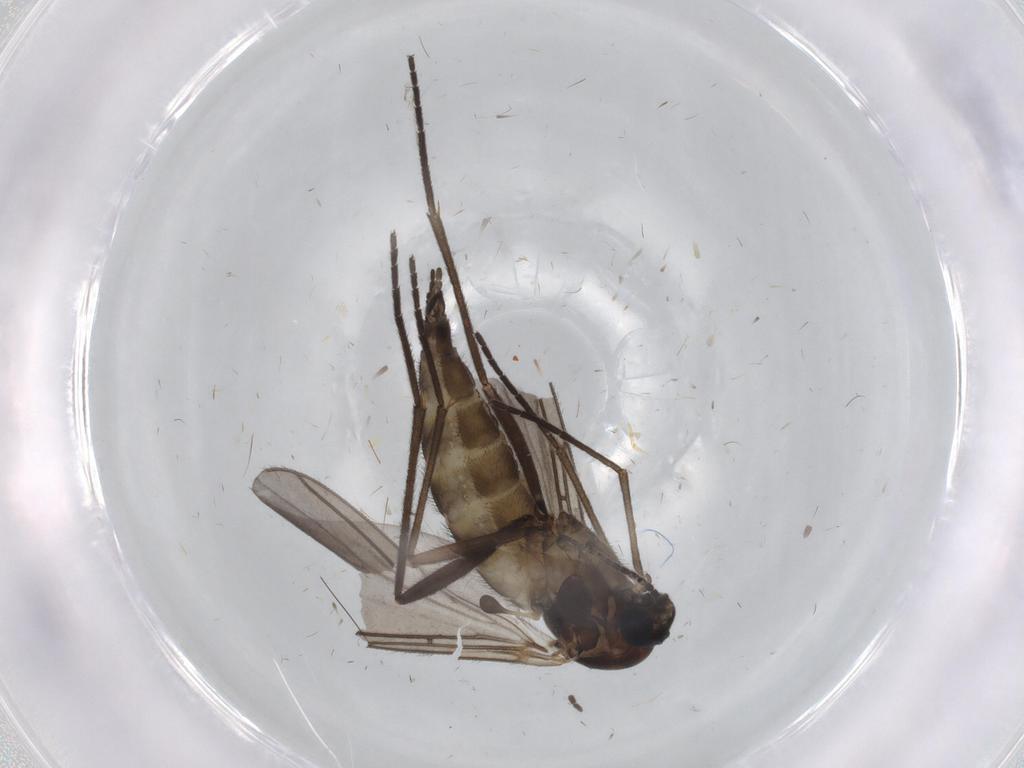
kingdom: Animalia
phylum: Arthropoda
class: Insecta
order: Diptera
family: Sciaridae
